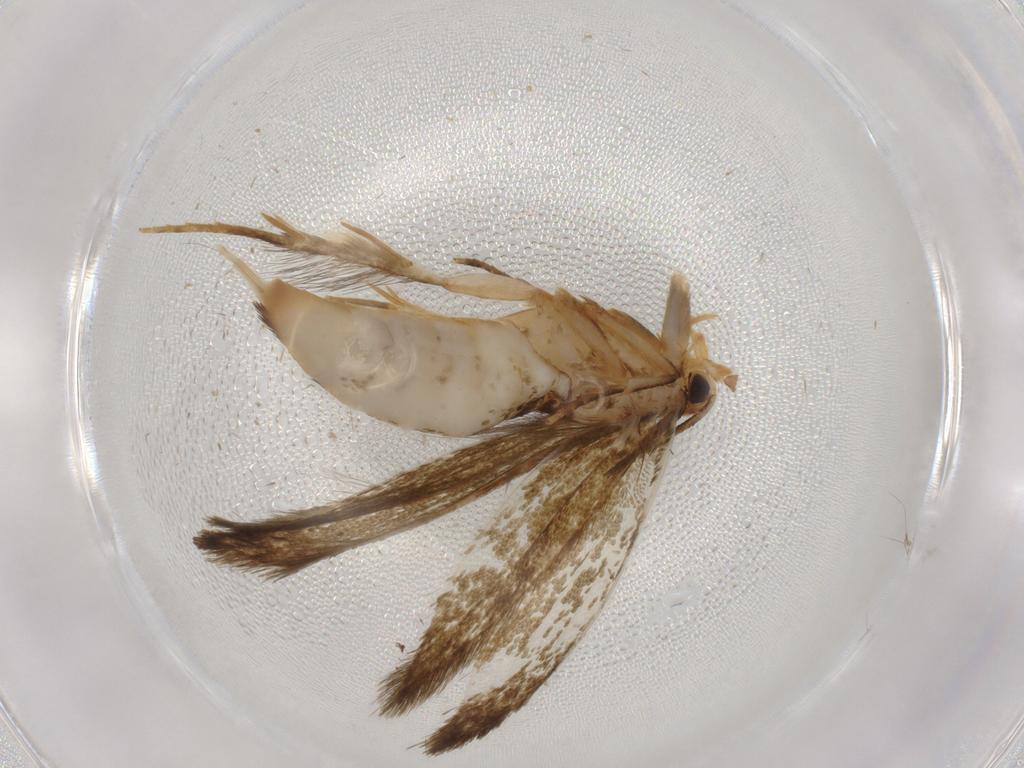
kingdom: Animalia
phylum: Arthropoda
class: Insecta
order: Lepidoptera
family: Tineidae
